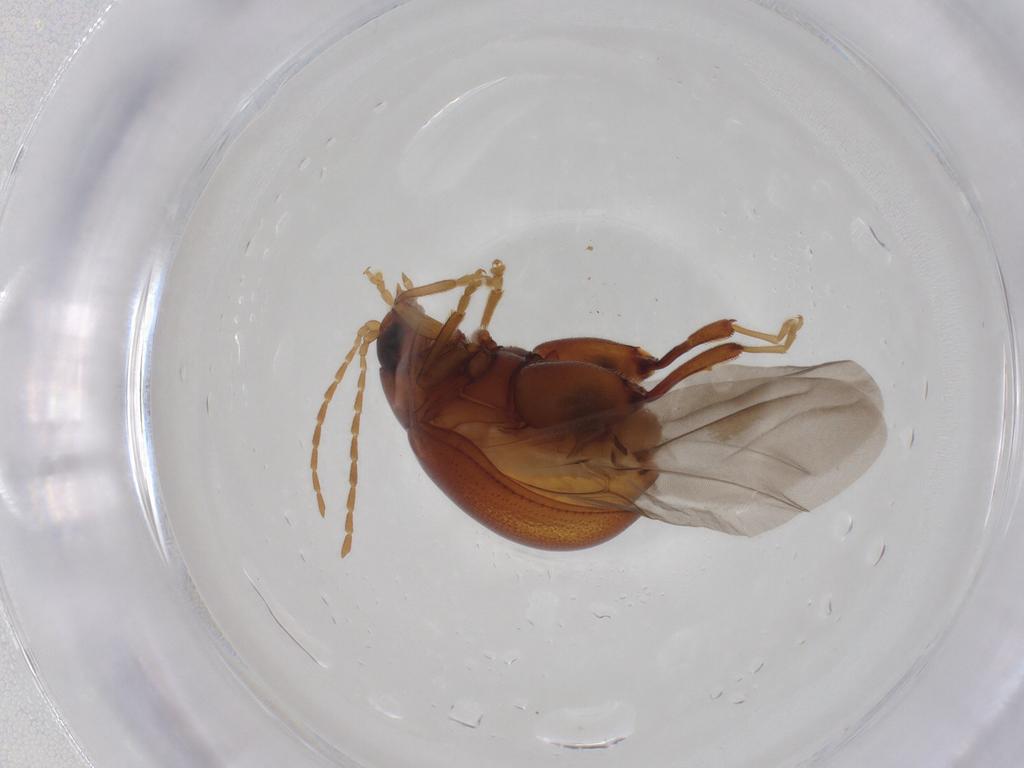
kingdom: Animalia
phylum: Arthropoda
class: Insecta
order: Coleoptera
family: Chrysomelidae
